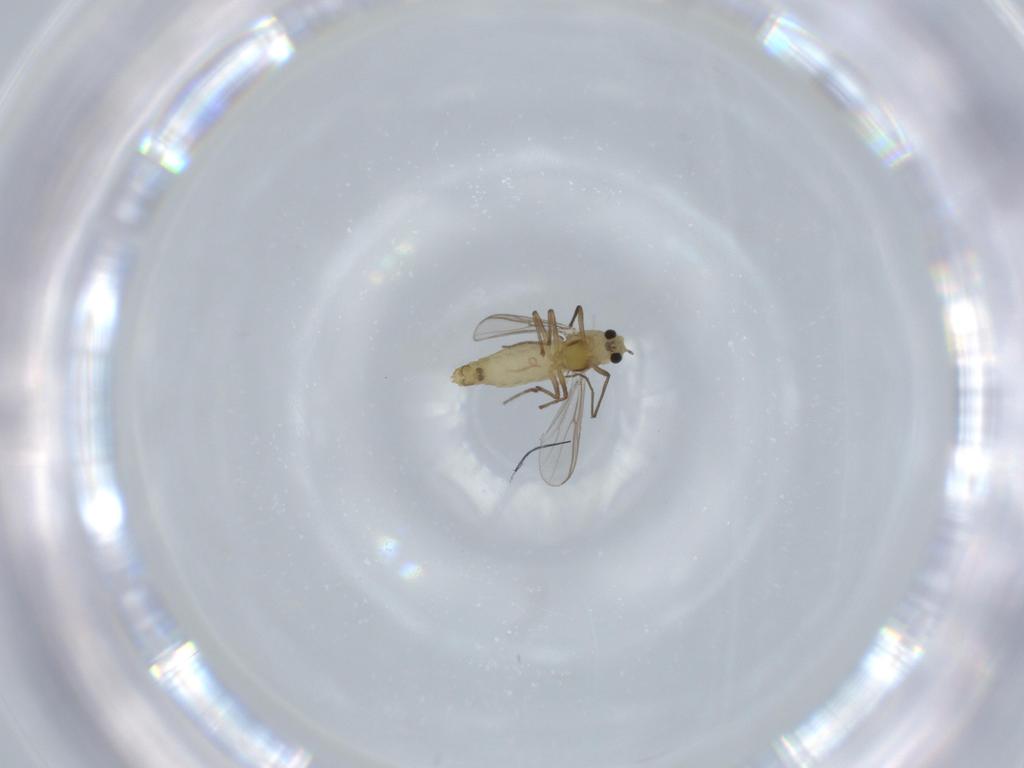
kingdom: Animalia
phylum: Arthropoda
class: Insecta
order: Diptera
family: Chironomidae
